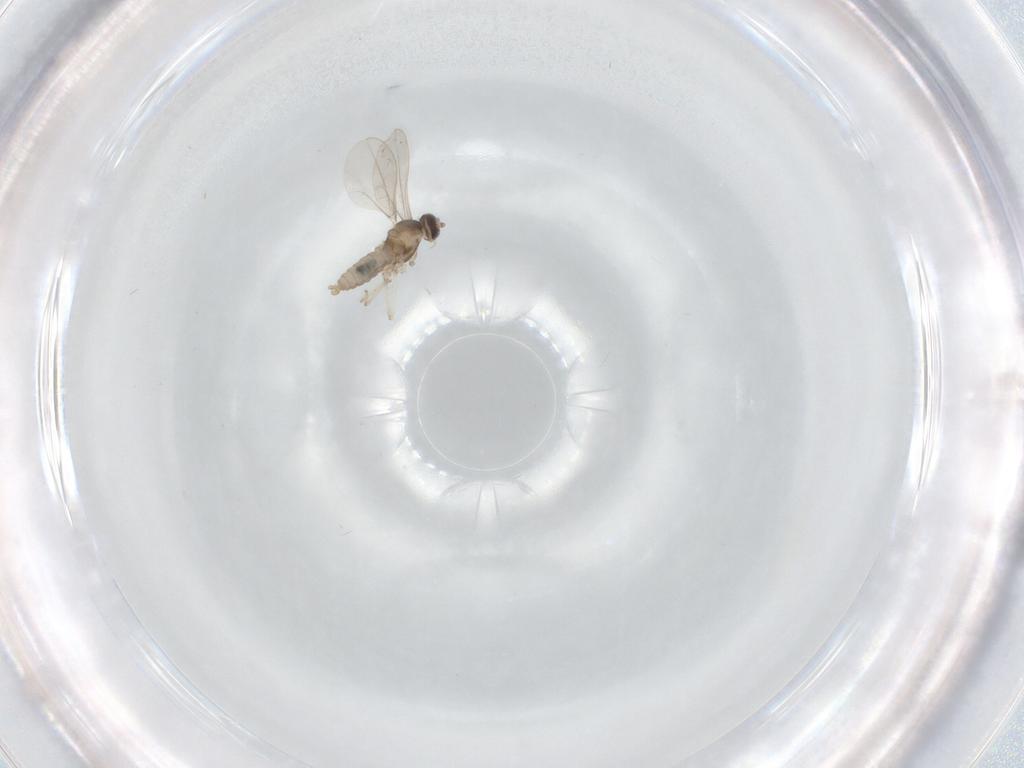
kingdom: Animalia
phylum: Arthropoda
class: Insecta
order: Diptera
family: Cecidomyiidae
